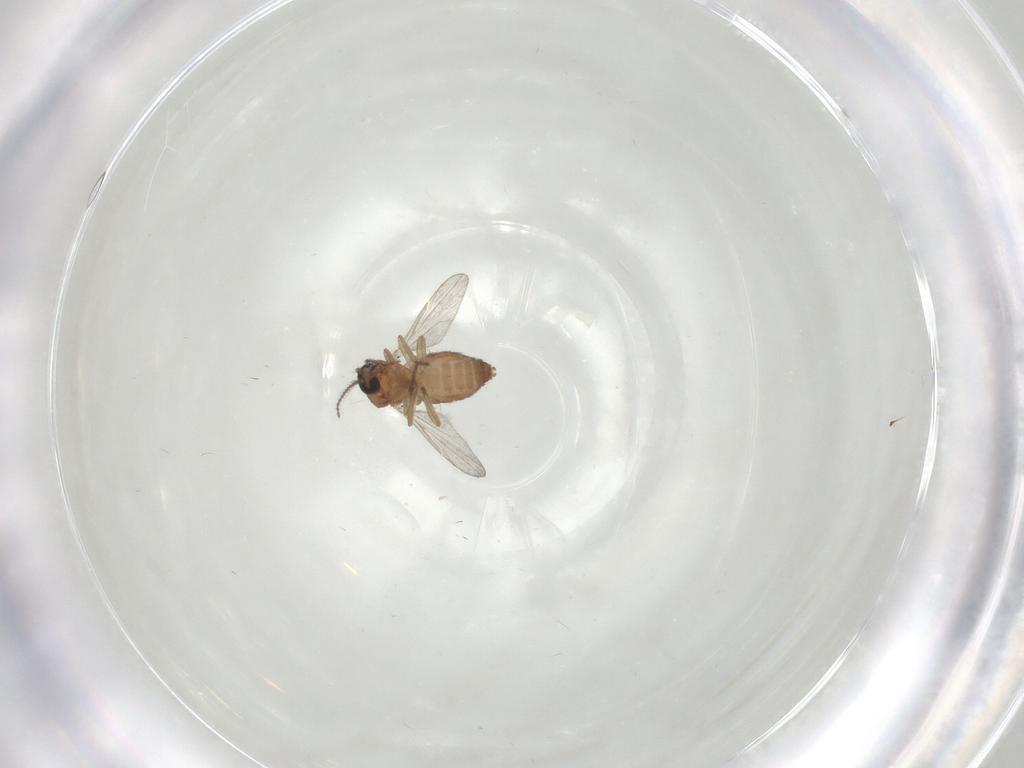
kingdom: Animalia
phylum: Arthropoda
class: Insecta
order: Diptera
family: Ceratopogonidae
